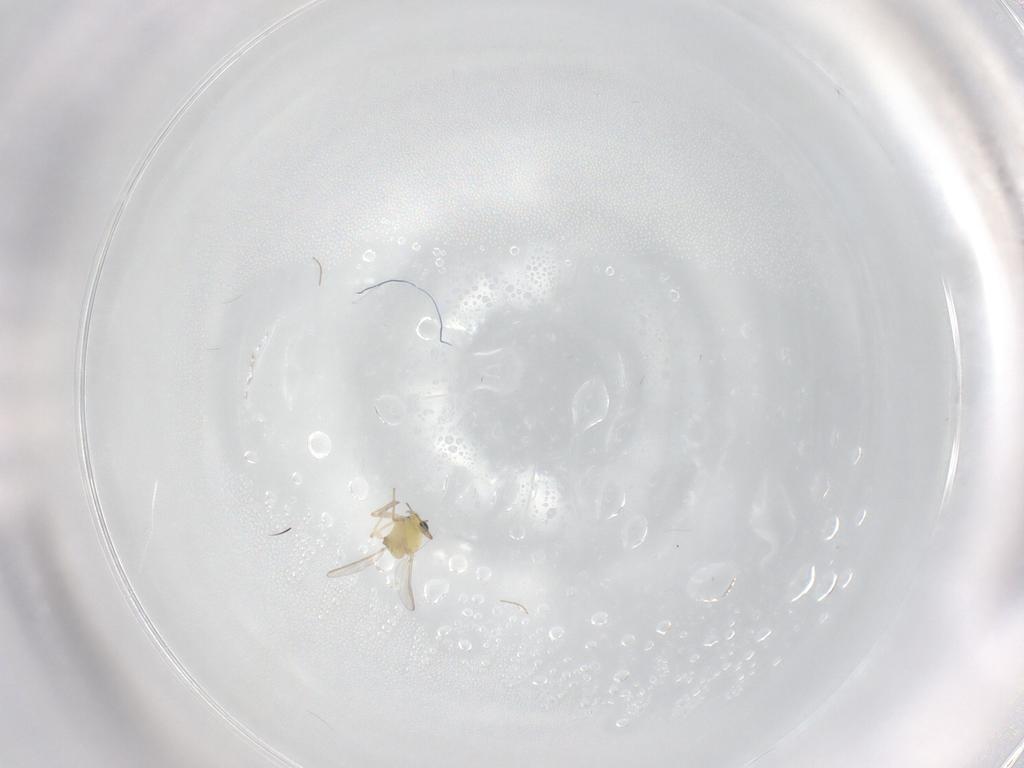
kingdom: Animalia
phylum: Arthropoda
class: Insecta
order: Diptera
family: Chironomidae
